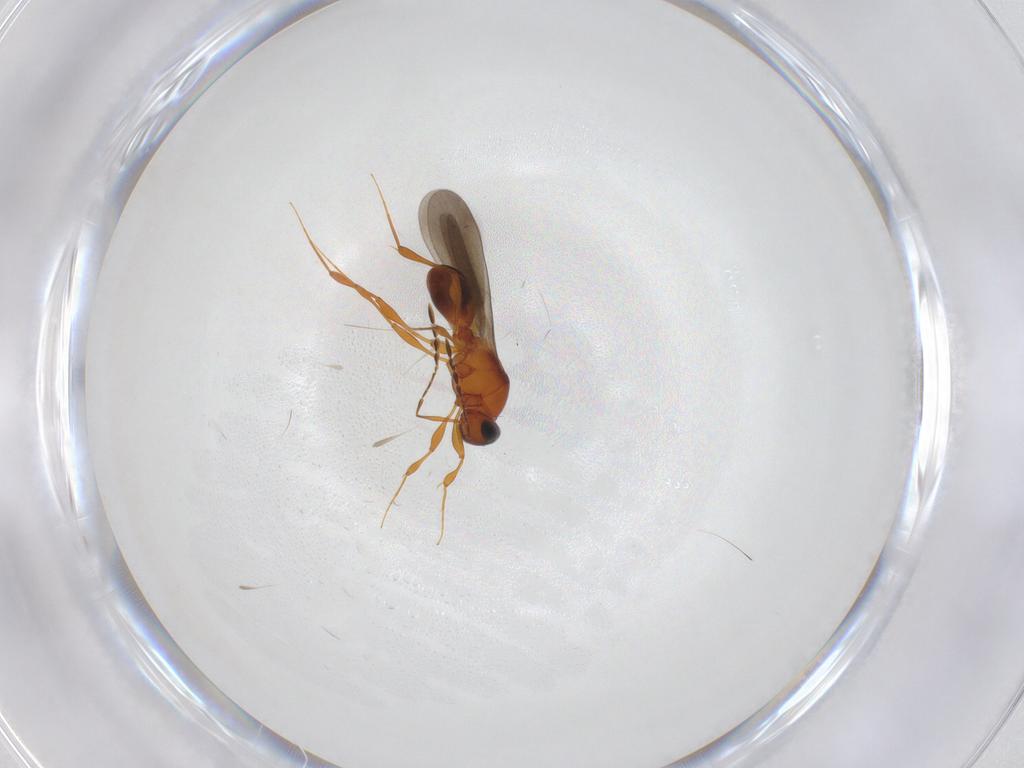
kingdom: Animalia
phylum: Arthropoda
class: Insecta
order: Hymenoptera
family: Platygastridae
